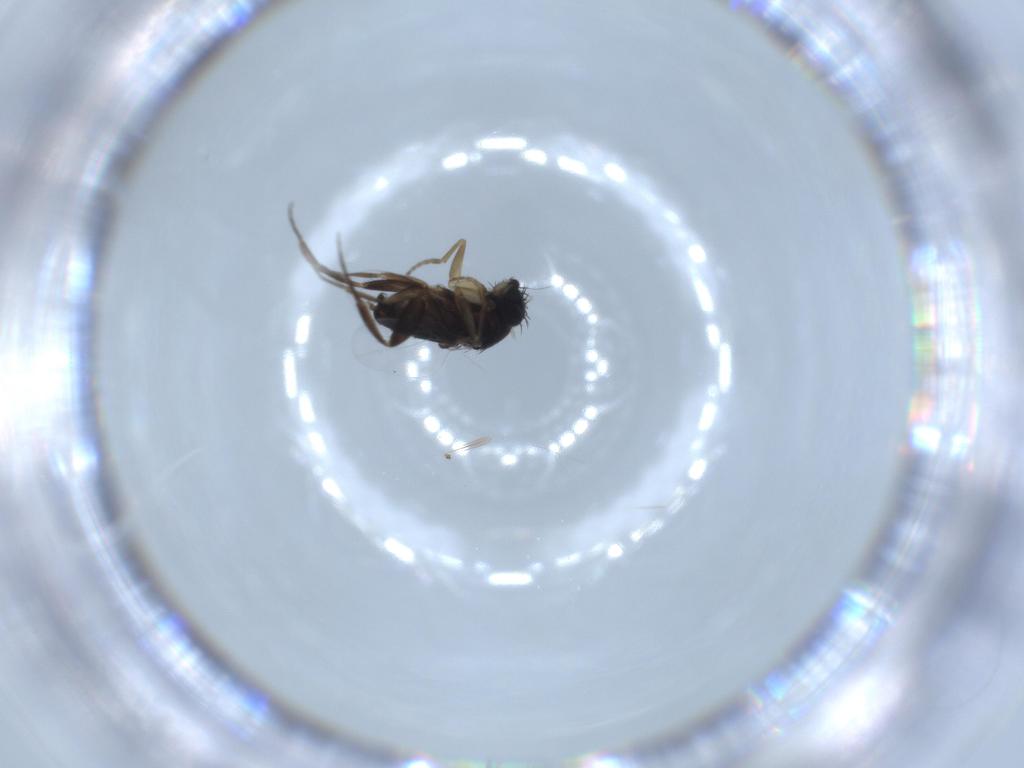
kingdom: Animalia
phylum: Arthropoda
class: Insecta
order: Diptera
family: Phoridae
